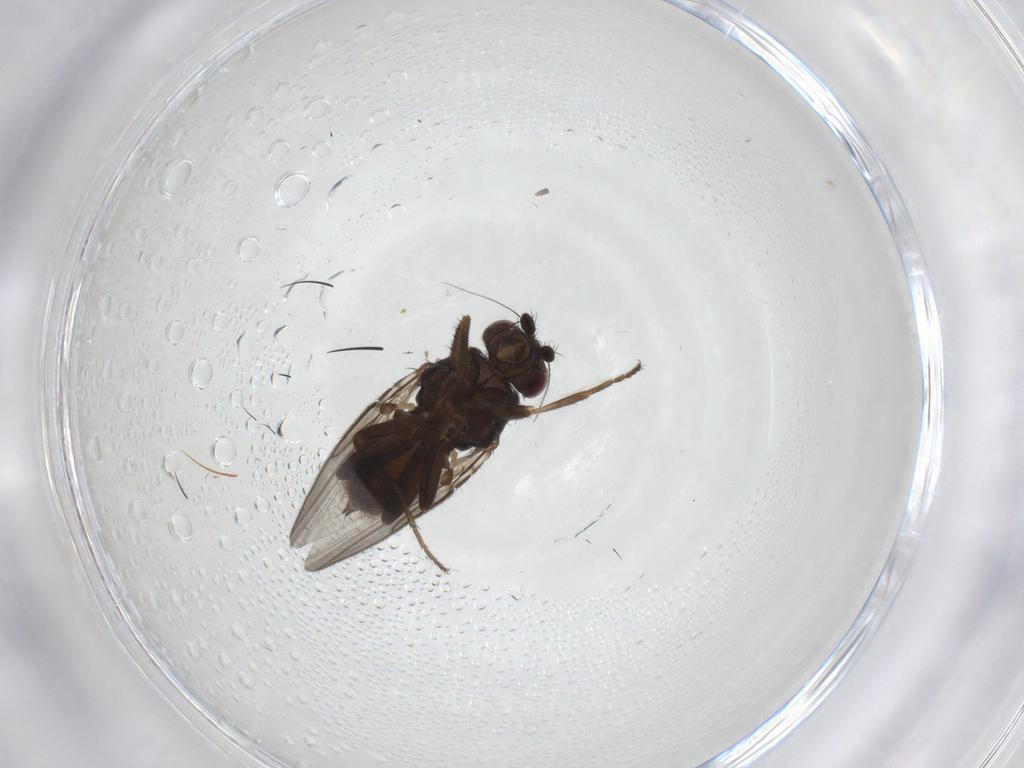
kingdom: Animalia
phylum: Arthropoda
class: Insecta
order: Diptera
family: Sphaeroceridae
